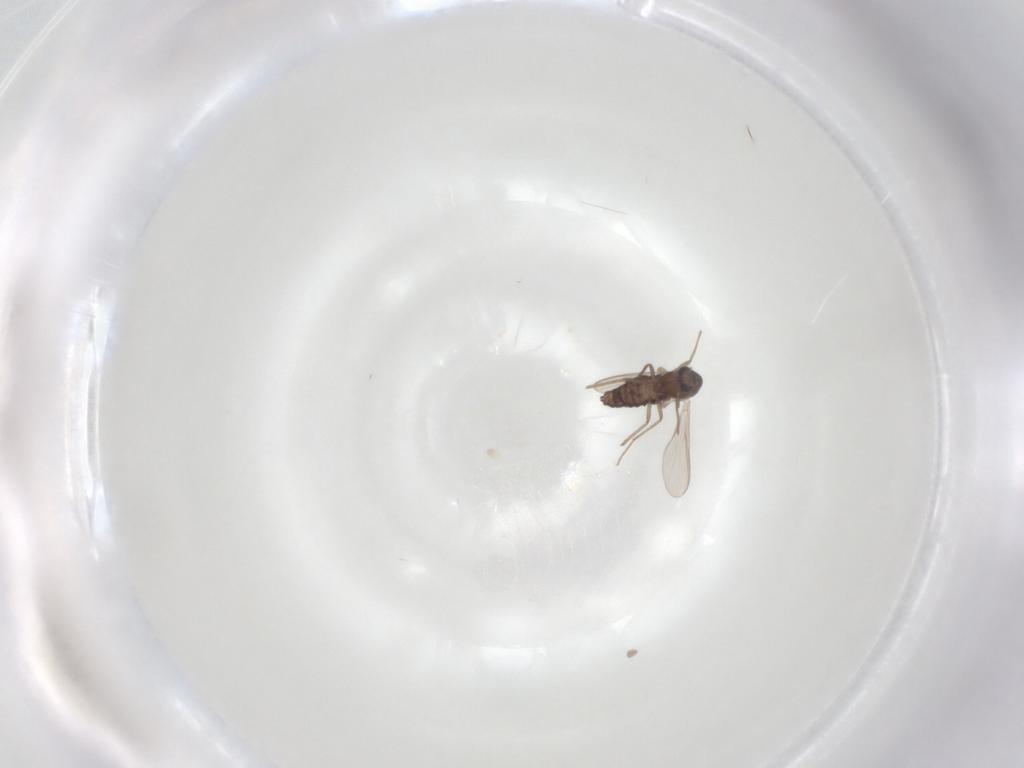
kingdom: Animalia
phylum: Arthropoda
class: Insecta
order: Diptera
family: Chironomidae
